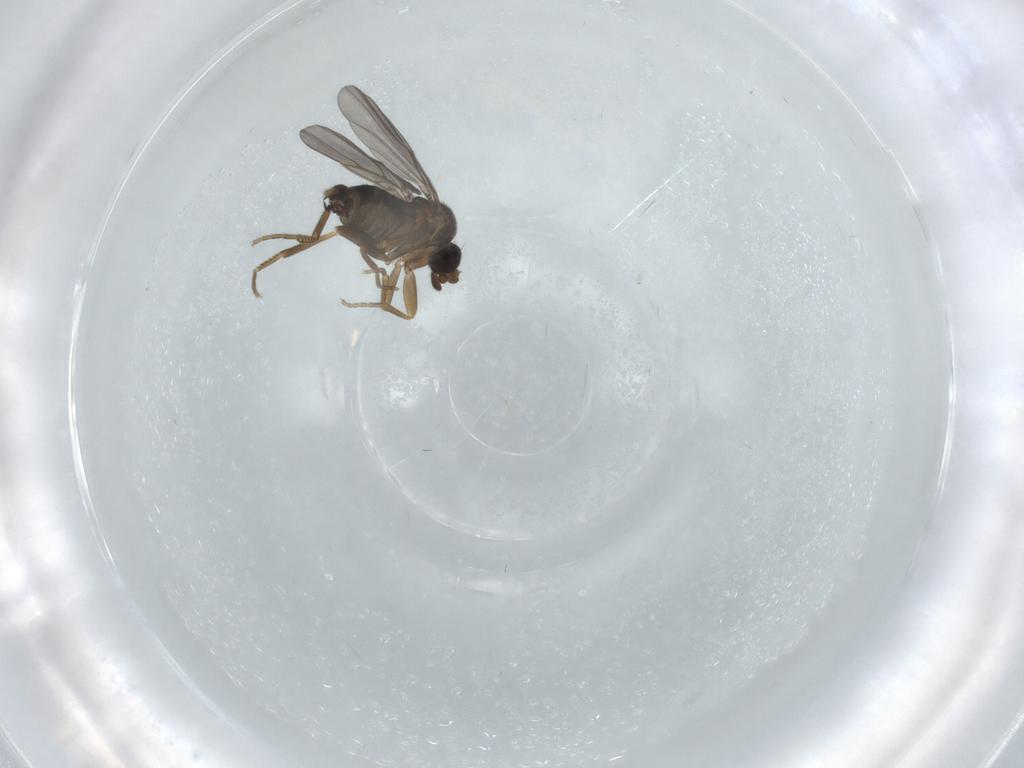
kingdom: Animalia
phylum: Arthropoda
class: Insecta
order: Diptera
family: Phoridae
